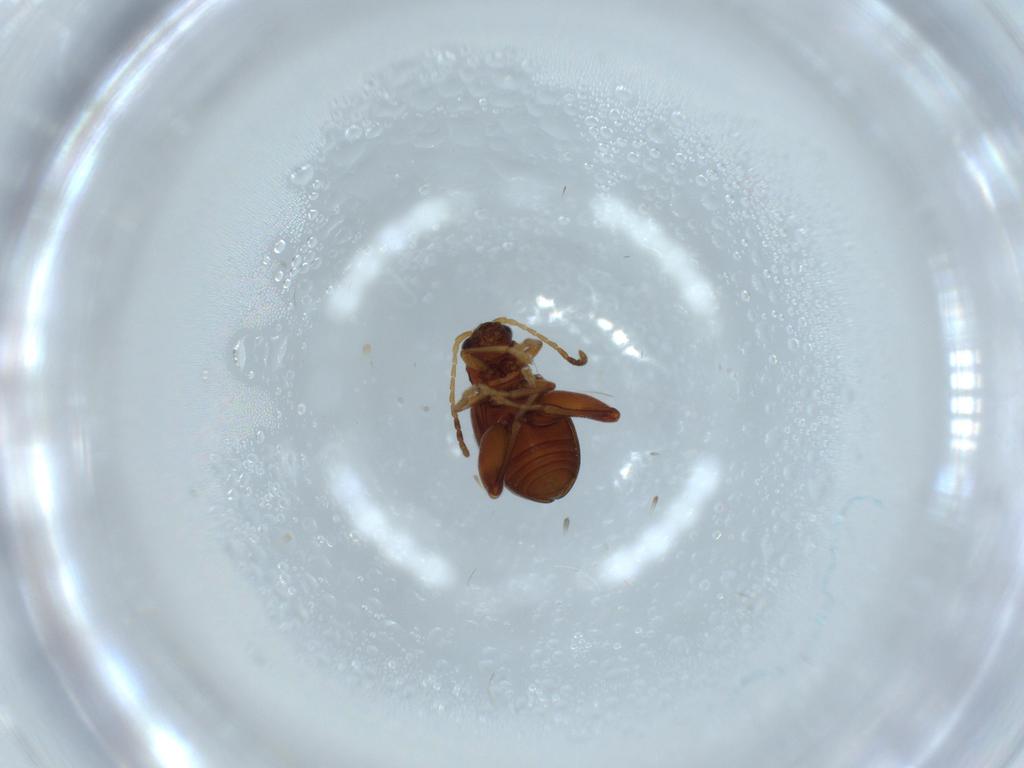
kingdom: Animalia
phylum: Arthropoda
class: Insecta
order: Coleoptera
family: Chrysomelidae
